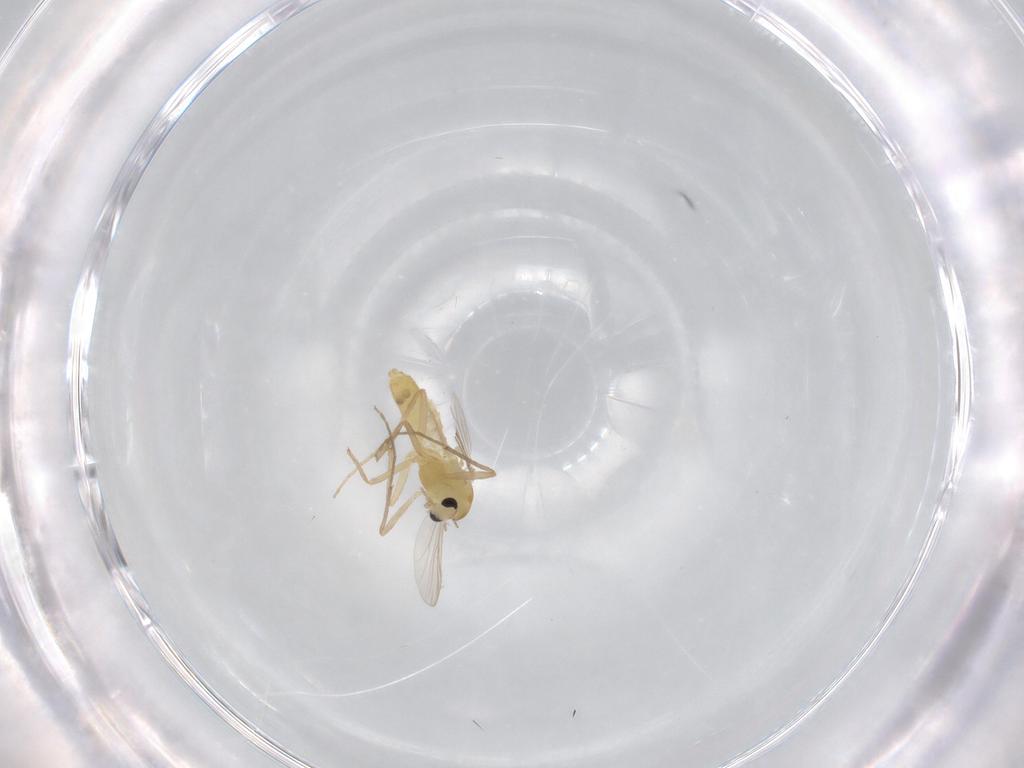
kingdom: Animalia
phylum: Arthropoda
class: Insecta
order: Diptera
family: Chironomidae
